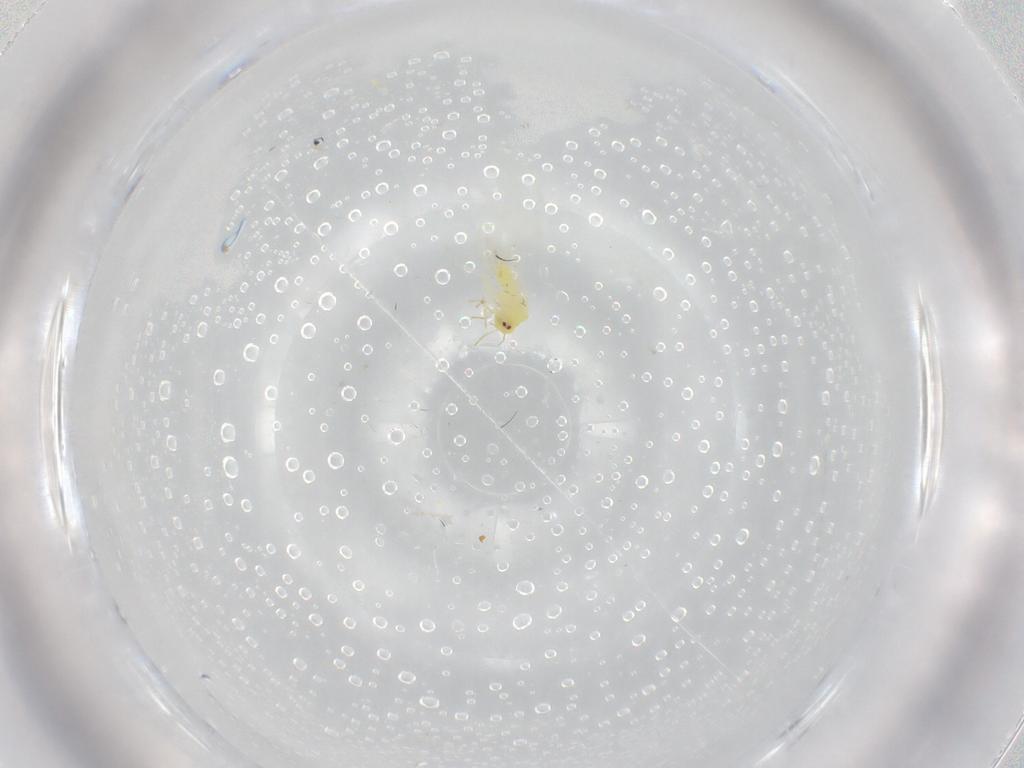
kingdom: Animalia
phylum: Arthropoda
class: Insecta
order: Hemiptera
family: Aleyrodidae
